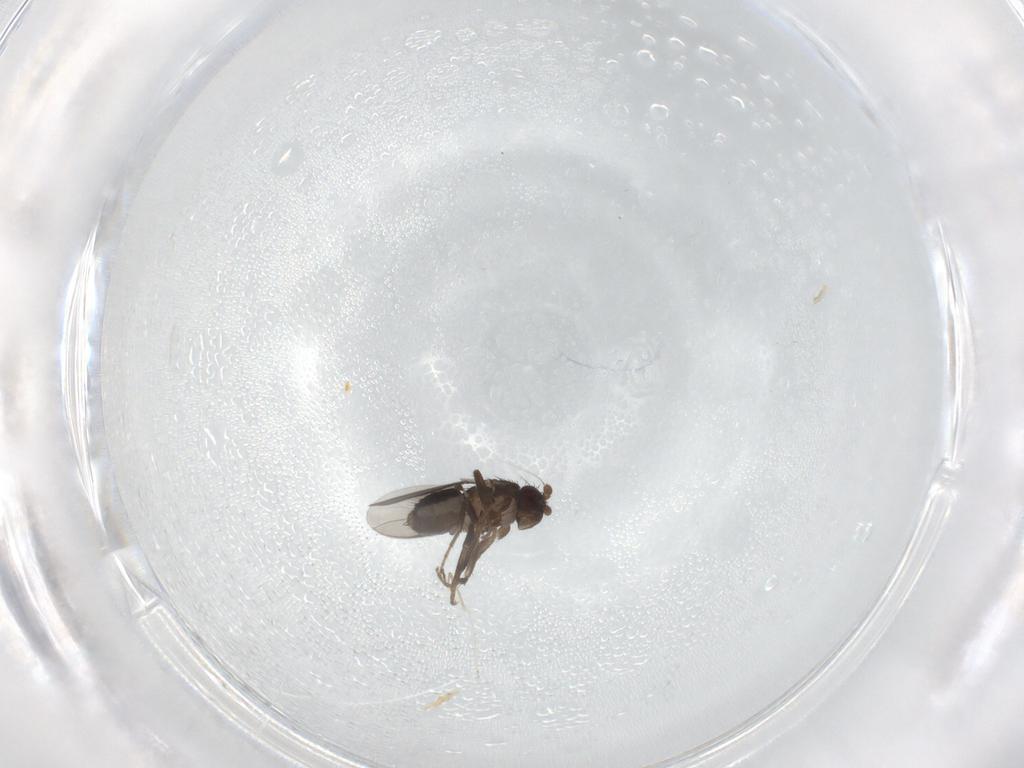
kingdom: Animalia
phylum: Arthropoda
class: Insecta
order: Diptera
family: Sphaeroceridae
